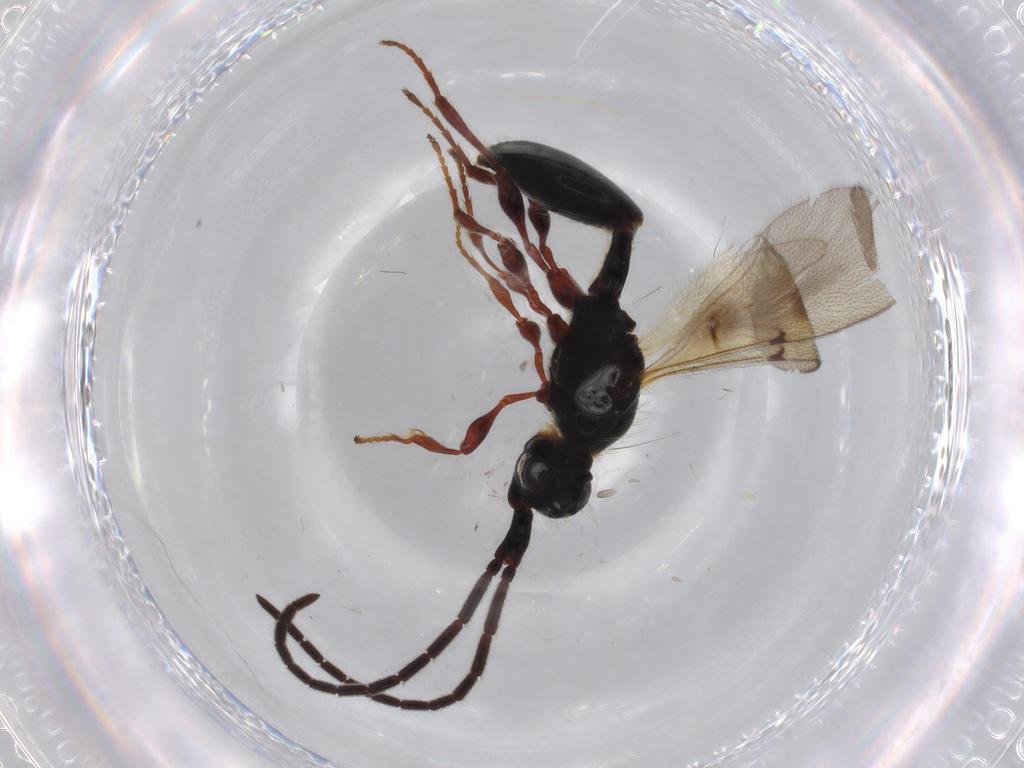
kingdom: Animalia
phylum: Arthropoda
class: Insecta
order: Hymenoptera
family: Diapriidae
